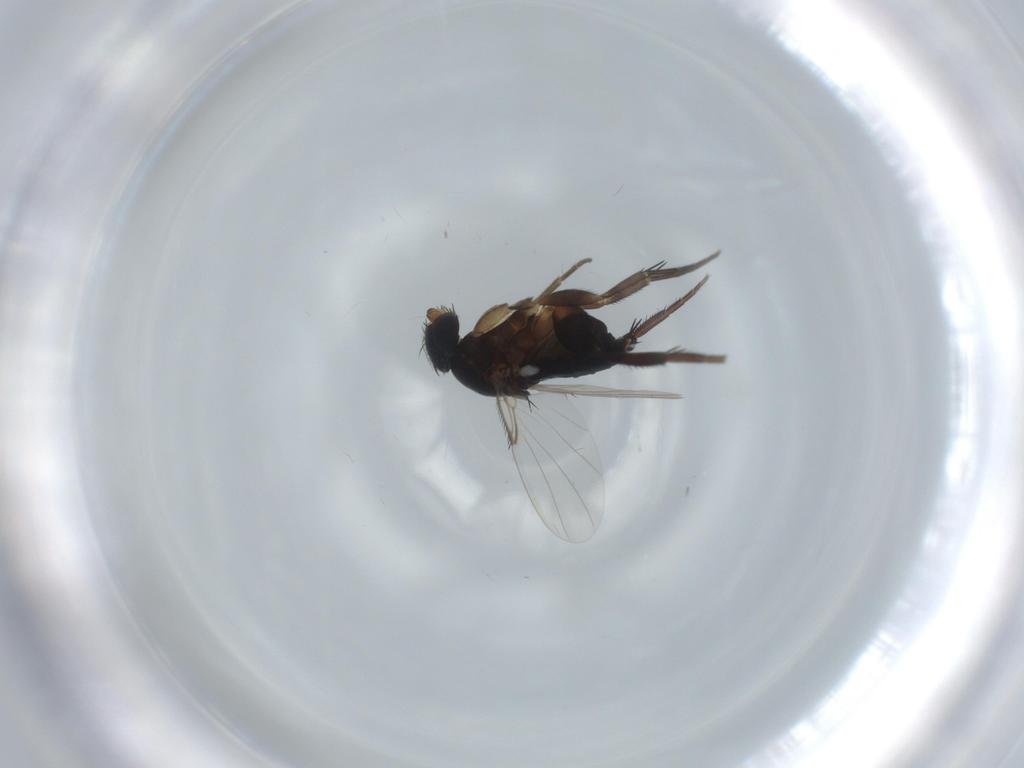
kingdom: Animalia
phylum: Arthropoda
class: Insecta
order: Diptera
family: Phoridae
